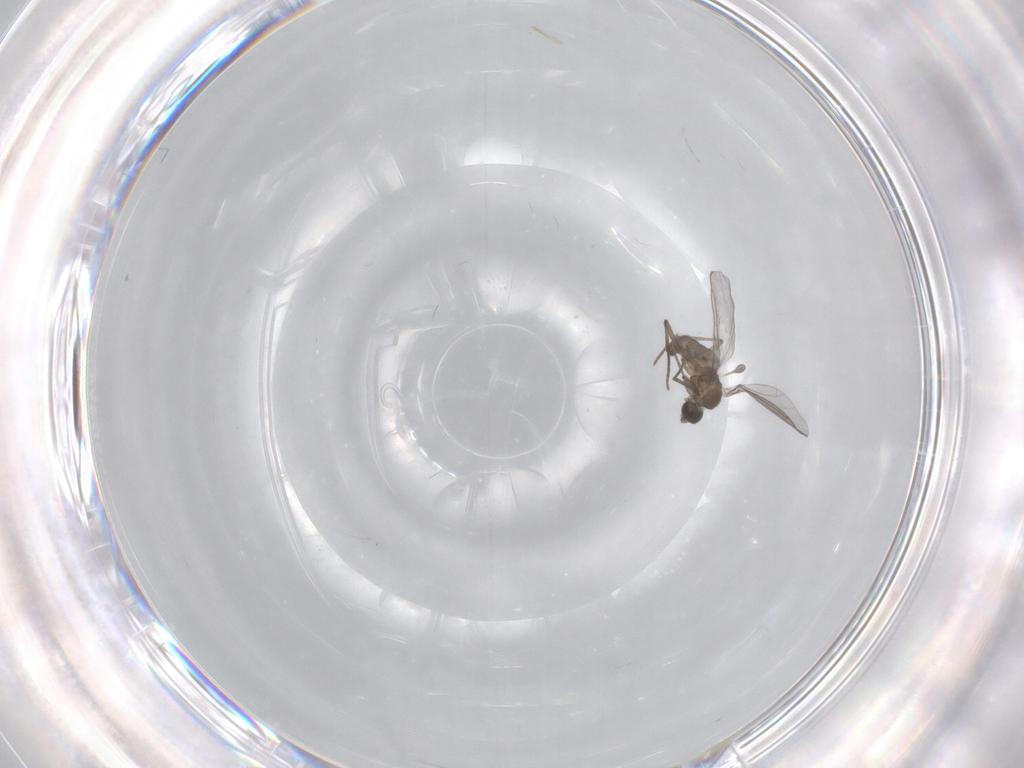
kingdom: Animalia
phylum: Arthropoda
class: Insecta
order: Diptera
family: Sciaridae
